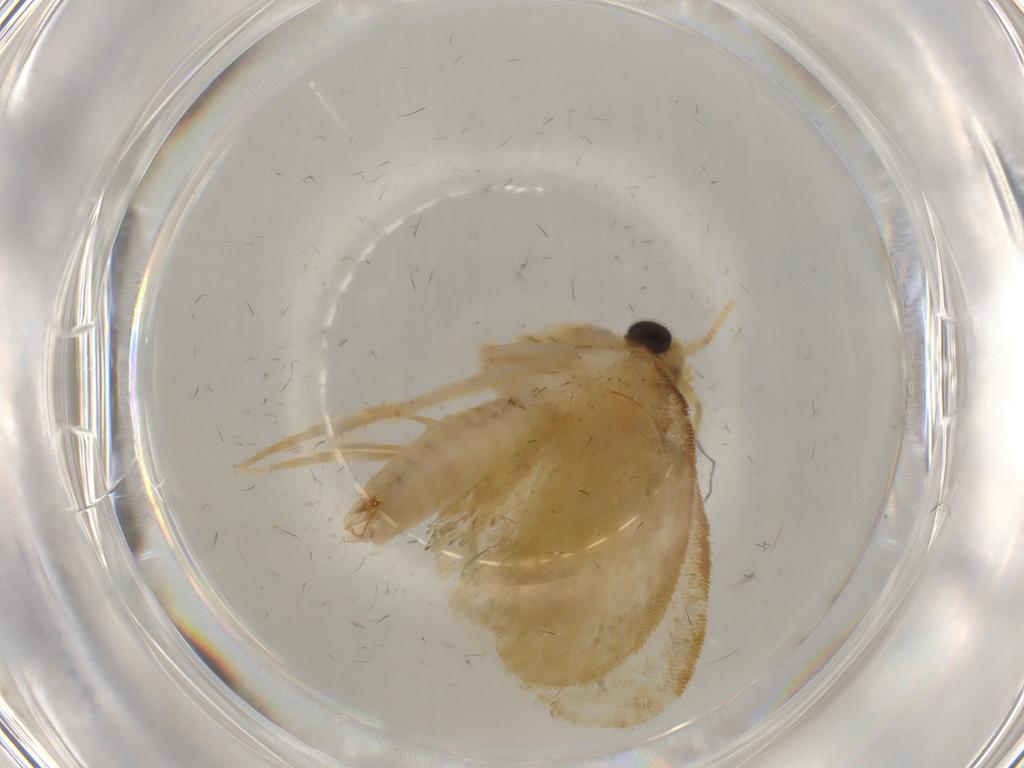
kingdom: Animalia
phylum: Arthropoda
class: Insecta
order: Lepidoptera
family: Psychidae
